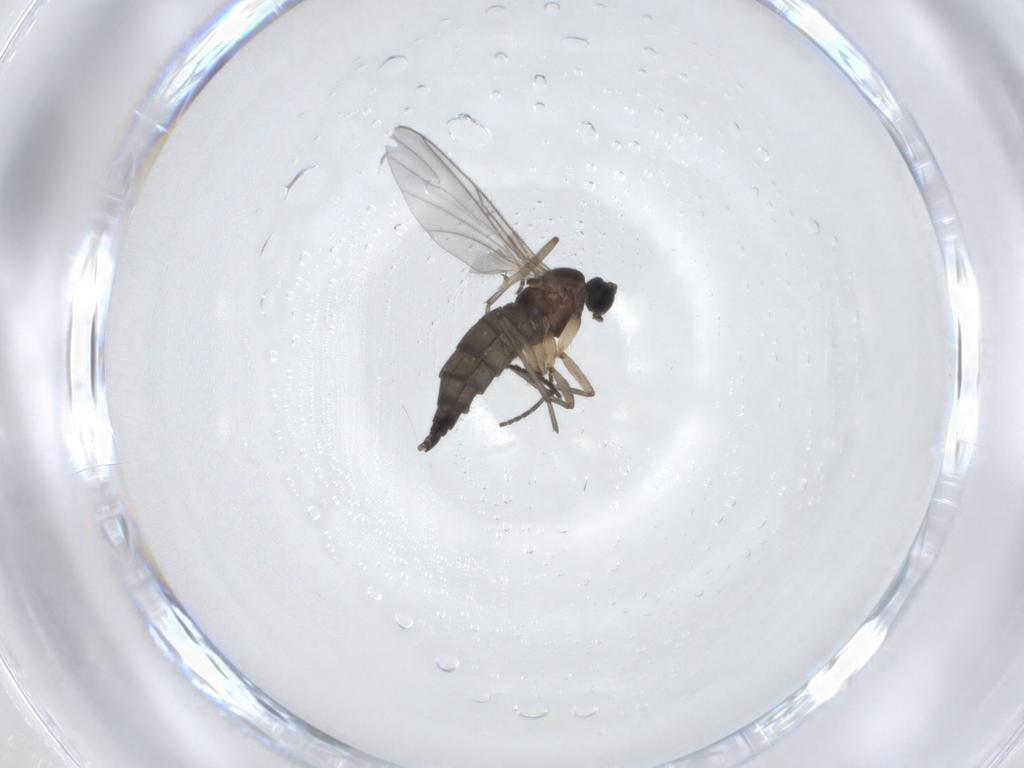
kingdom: Animalia
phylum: Arthropoda
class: Insecta
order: Diptera
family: Sciaridae
